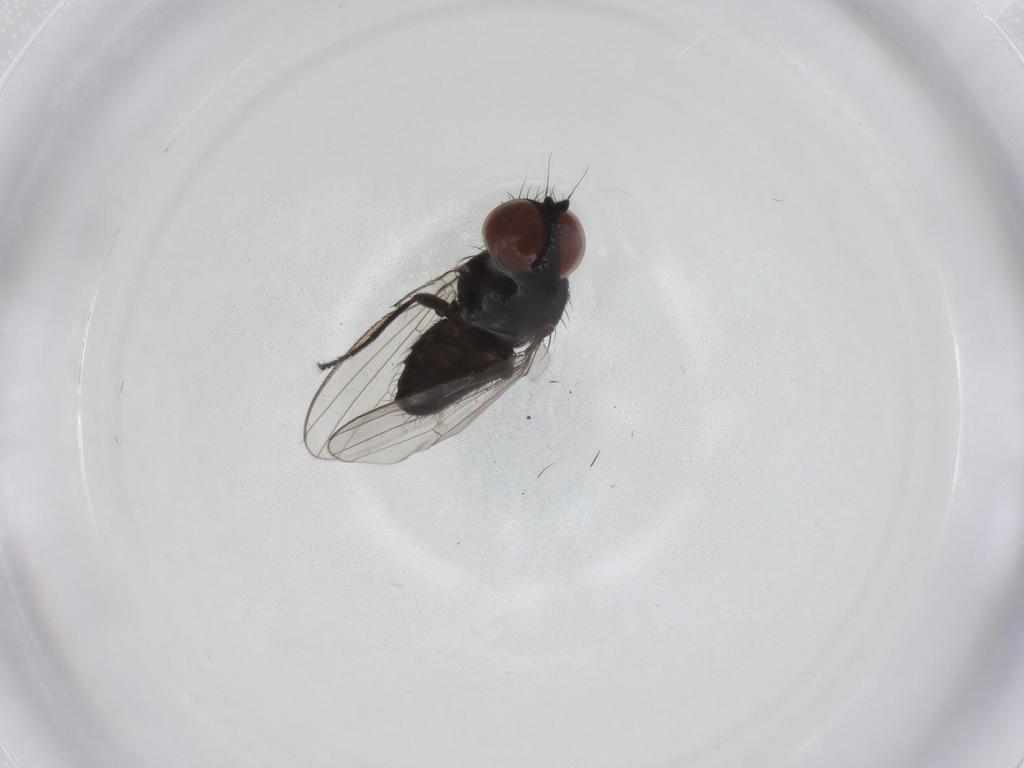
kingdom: Animalia
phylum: Arthropoda
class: Insecta
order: Diptera
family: Milichiidae
